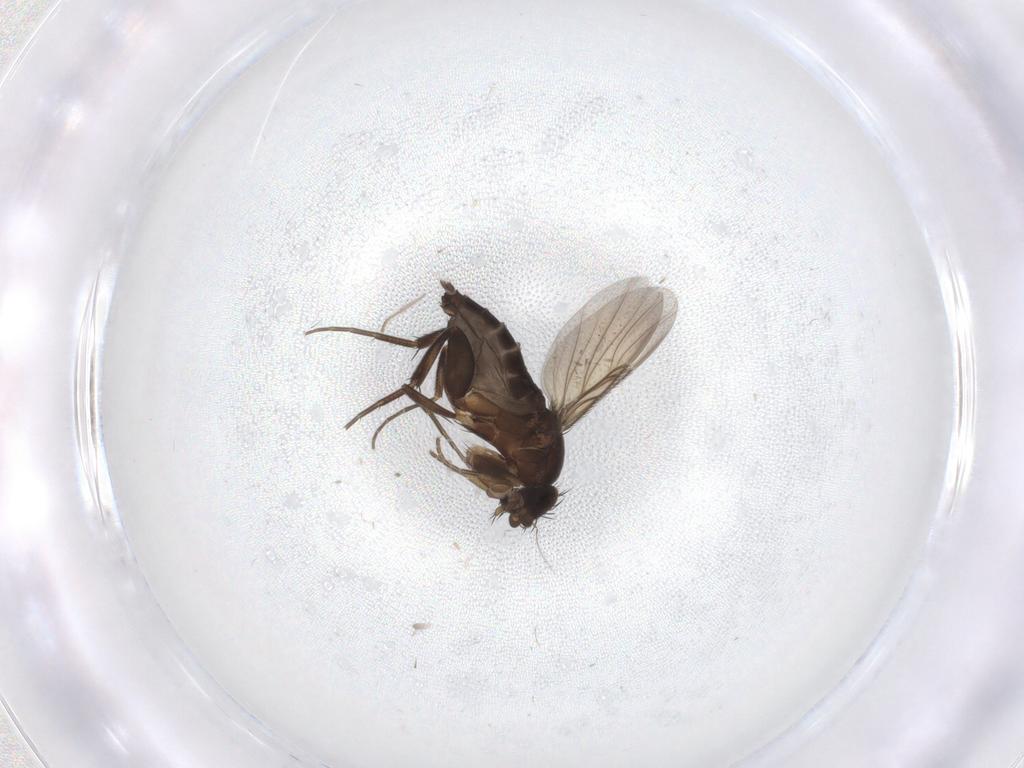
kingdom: Animalia
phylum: Arthropoda
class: Insecta
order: Diptera
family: Phoridae
